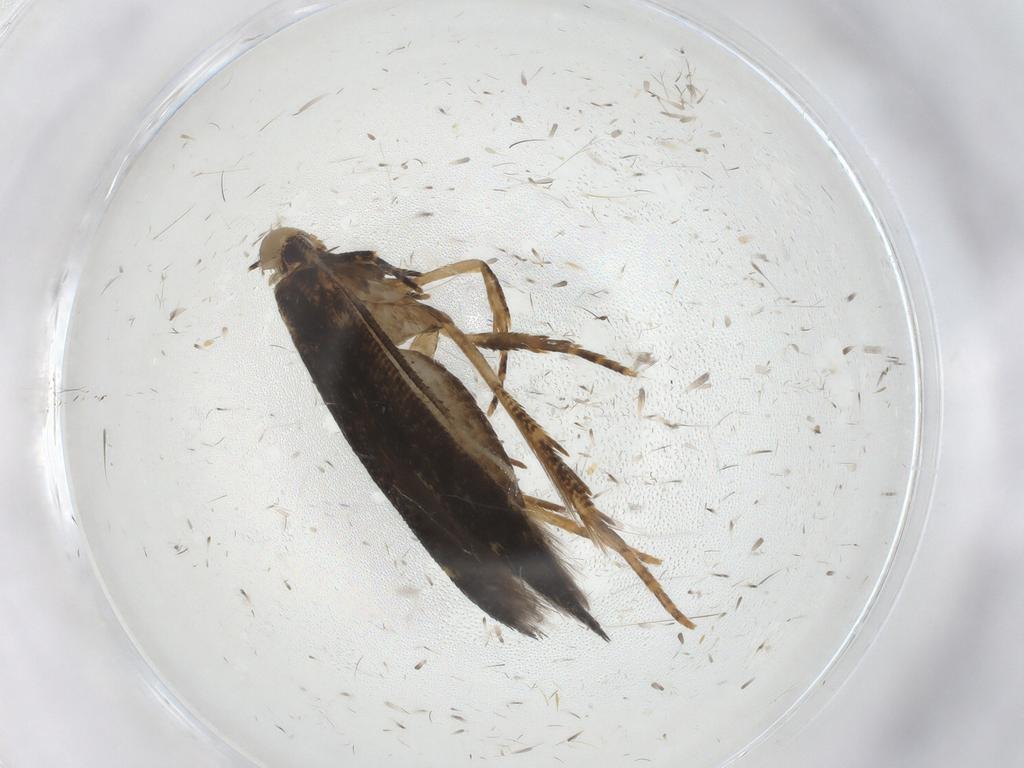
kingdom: Animalia
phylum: Arthropoda
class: Insecta
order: Lepidoptera
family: Cosmopterigidae
